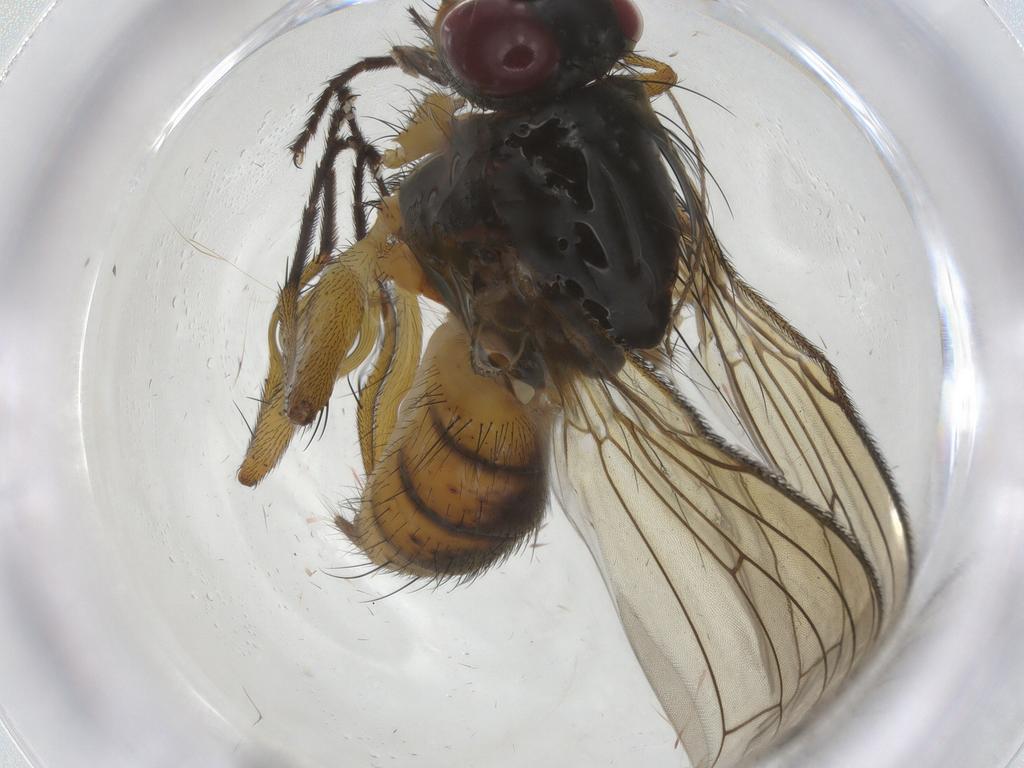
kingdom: Animalia
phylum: Arthropoda
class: Insecta
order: Diptera
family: Muscidae
